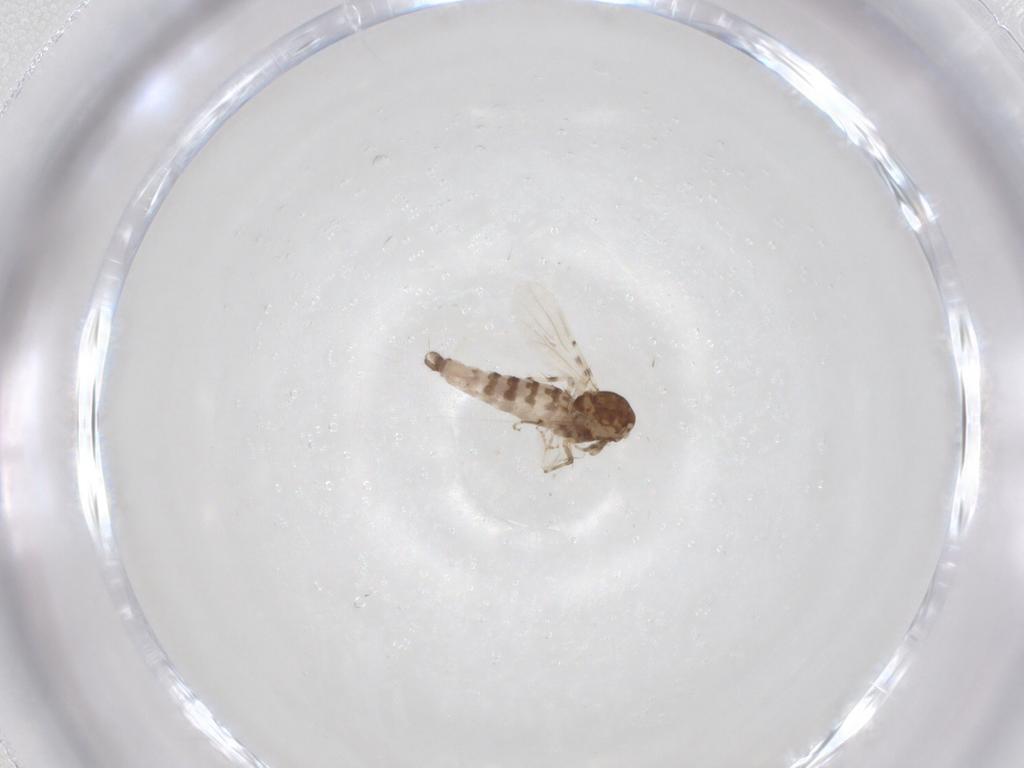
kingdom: Animalia
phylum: Arthropoda
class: Insecta
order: Diptera
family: Ceratopogonidae
